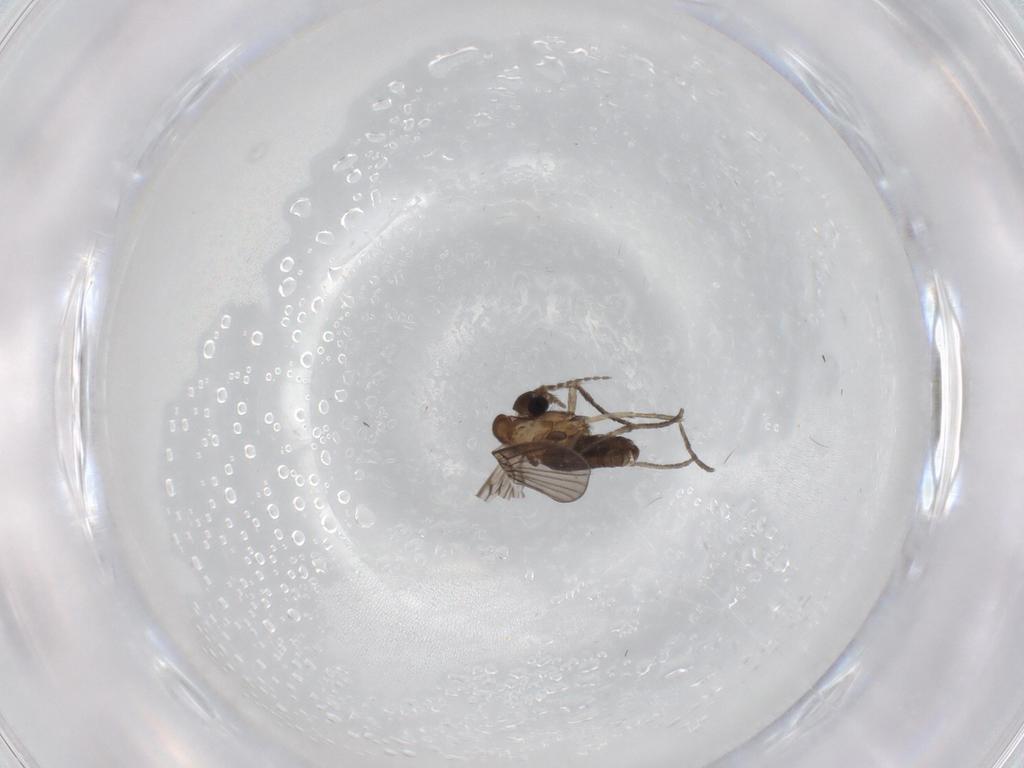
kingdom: Animalia
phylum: Arthropoda
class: Insecta
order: Diptera
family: Psychodidae
